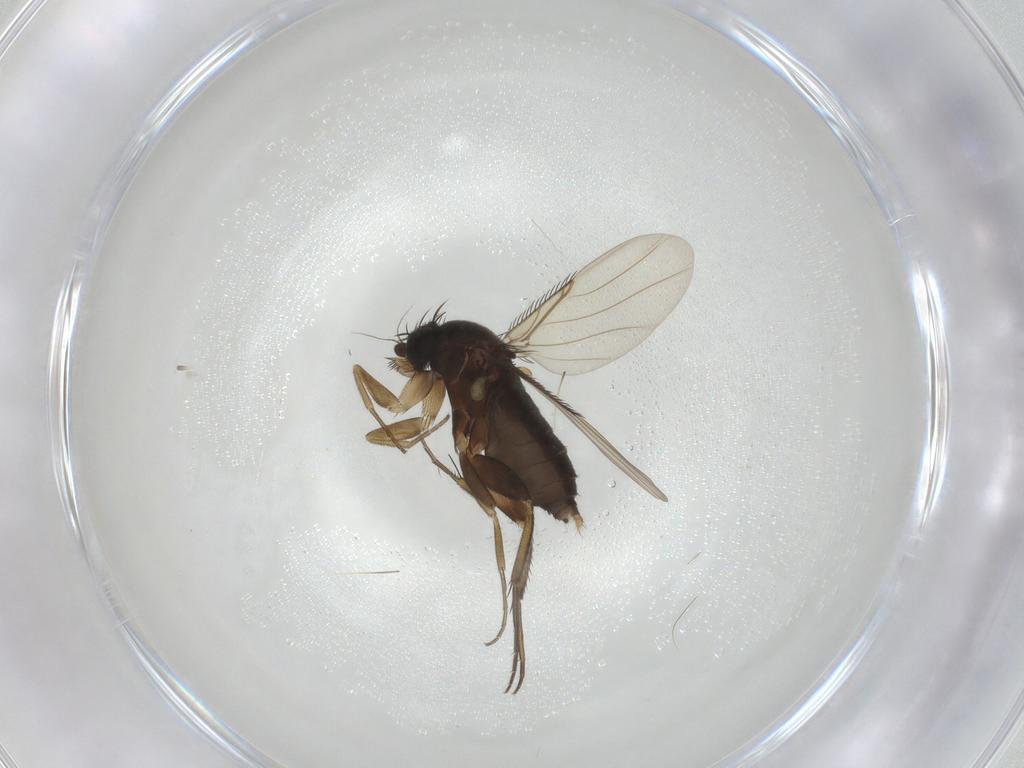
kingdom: Animalia
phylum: Arthropoda
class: Insecta
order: Diptera
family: Phoridae
